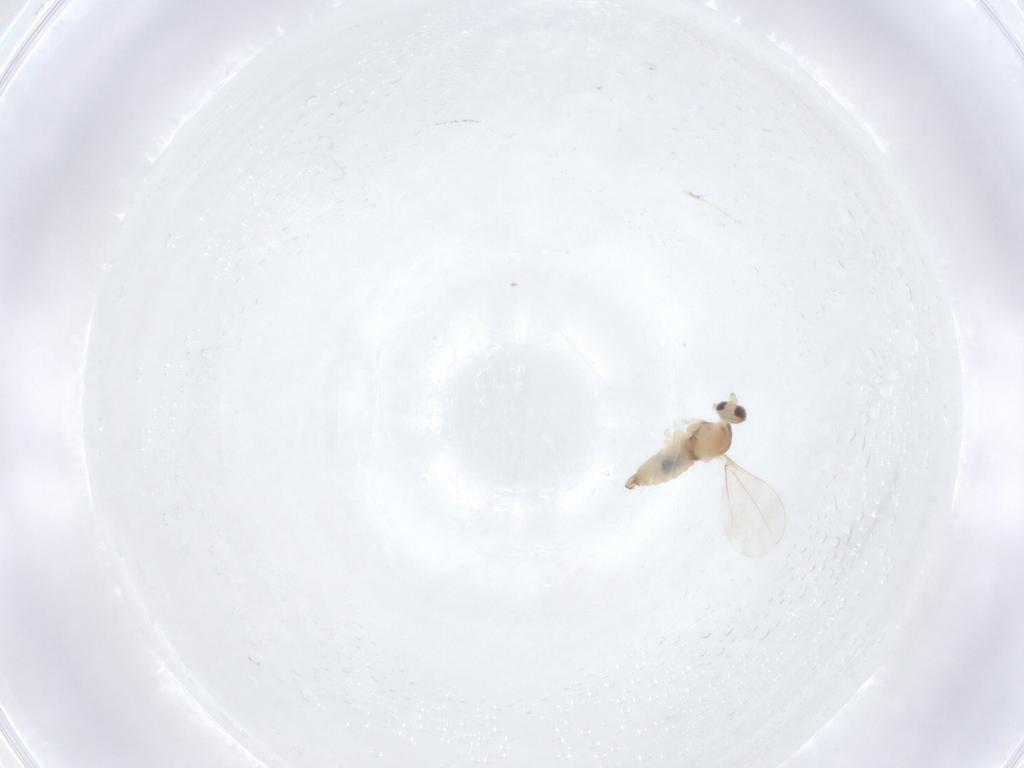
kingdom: Animalia
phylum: Arthropoda
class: Insecta
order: Diptera
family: Cecidomyiidae
